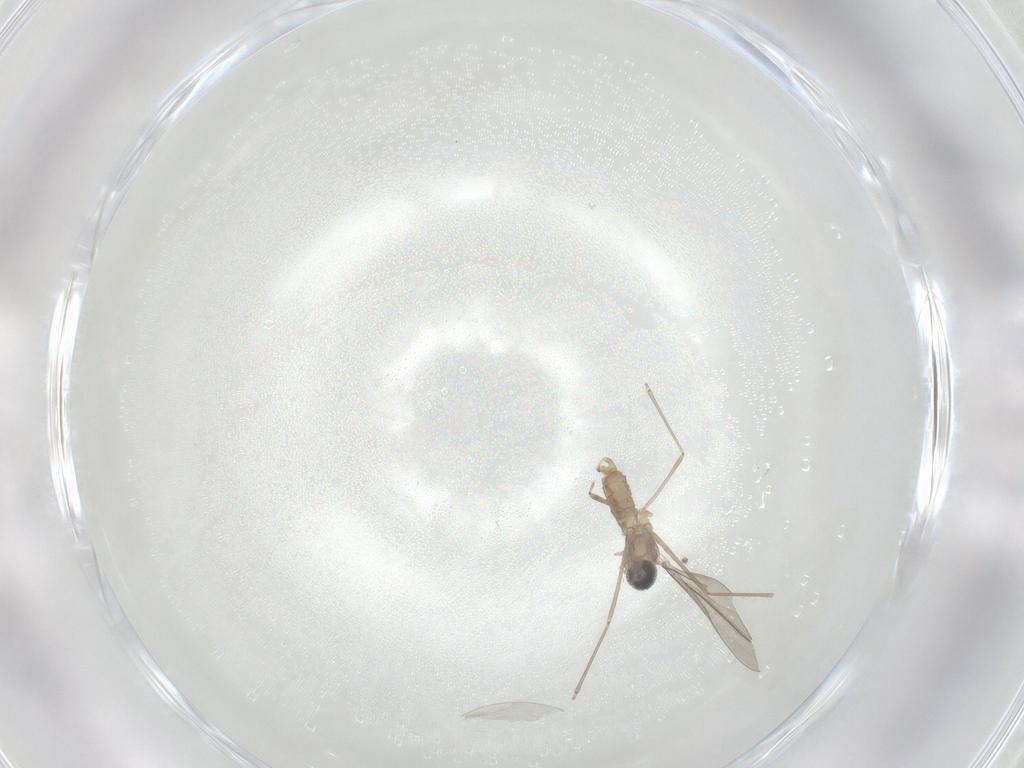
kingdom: Animalia
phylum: Arthropoda
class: Insecta
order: Diptera
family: Cecidomyiidae
